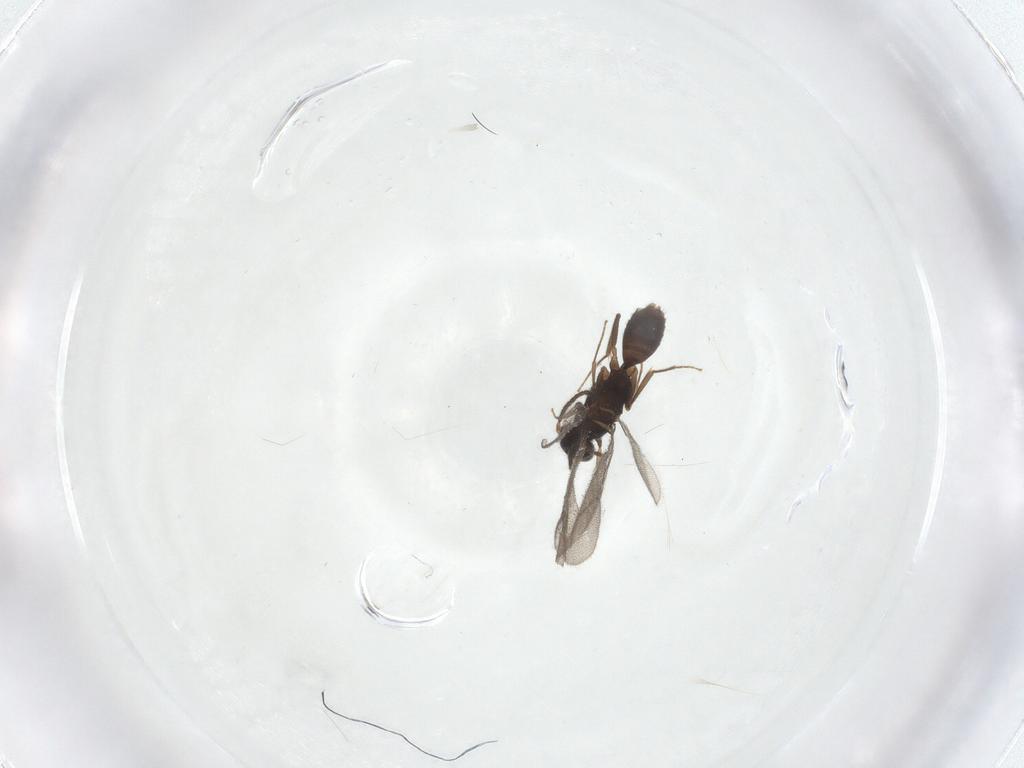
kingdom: Animalia
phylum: Arthropoda
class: Insecta
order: Hymenoptera
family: Bethylidae
